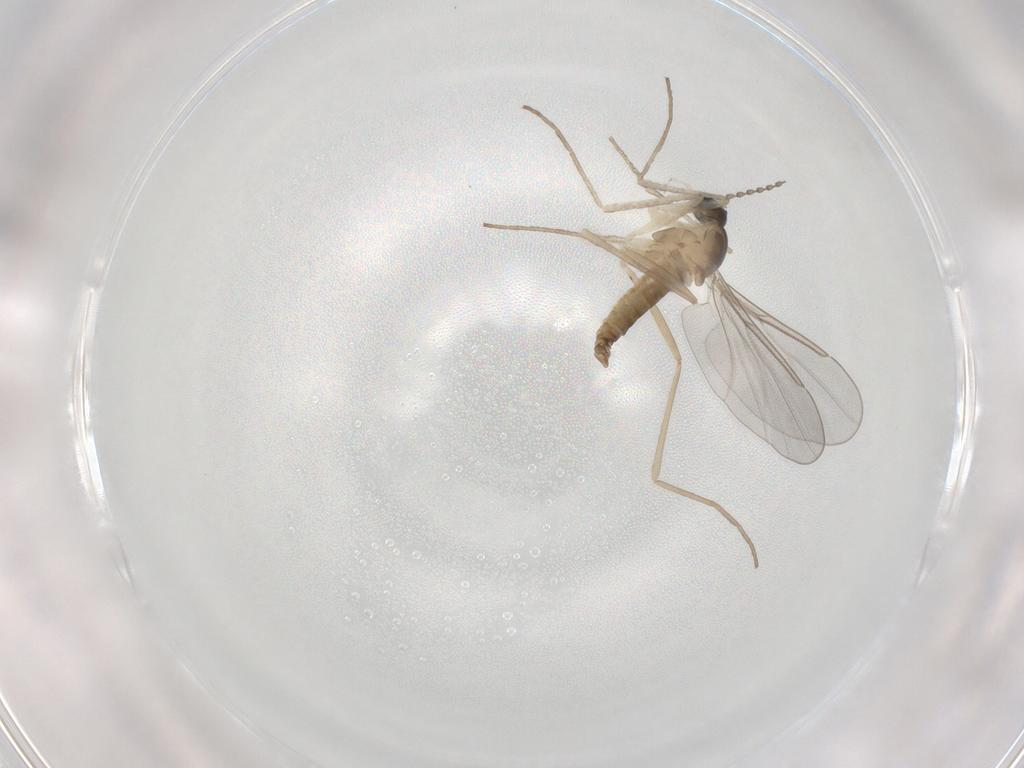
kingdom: Animalia
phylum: Arthropoda
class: Insecta
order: Diptera
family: Cecidomyiidae
